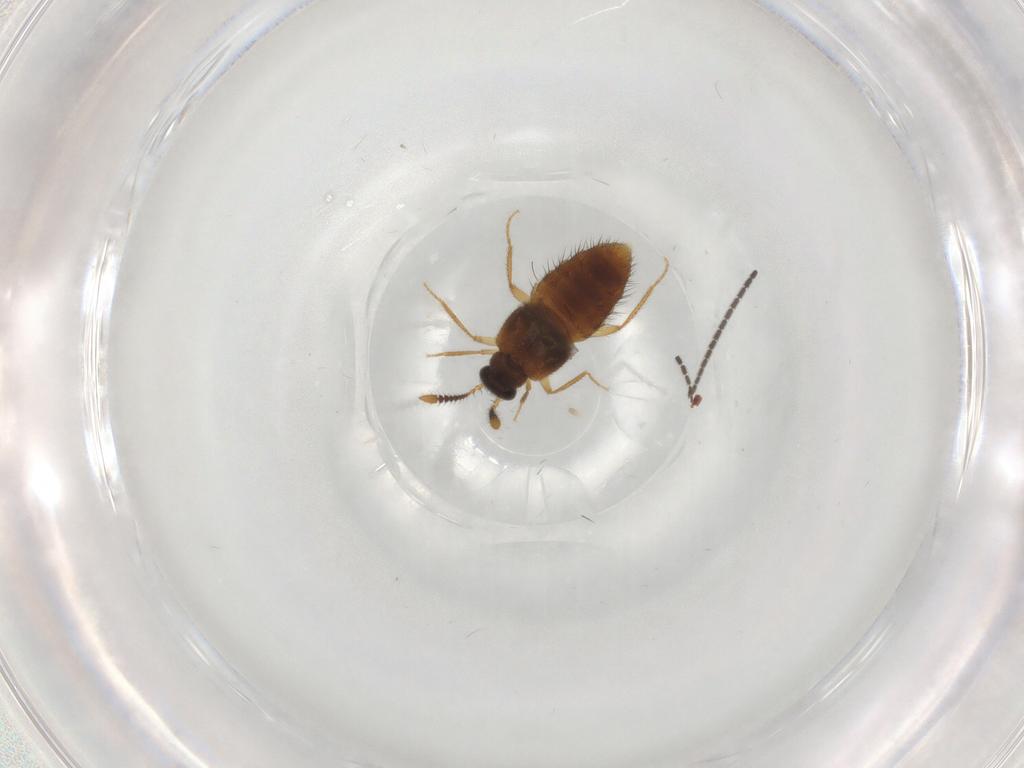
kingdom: Animalia
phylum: Arthropoda
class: Insecta
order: Coleoptera
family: Staphylinidae
